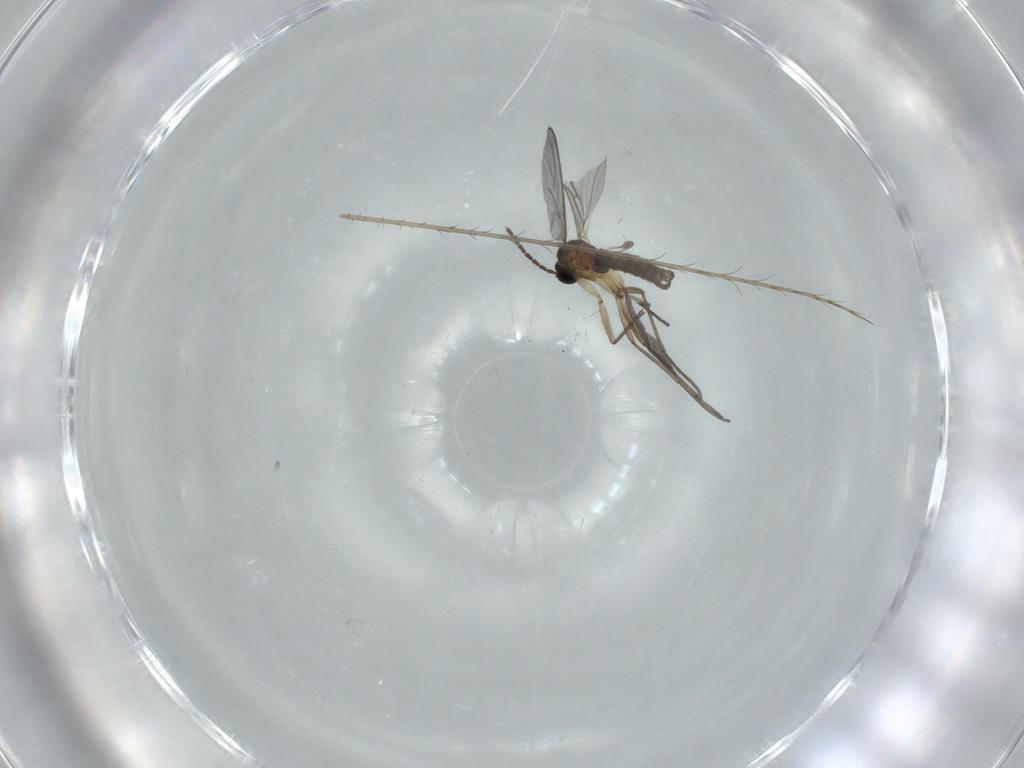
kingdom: Animalia
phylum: Arthropoda
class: Insecta
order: Diptera
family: Sciaridae
